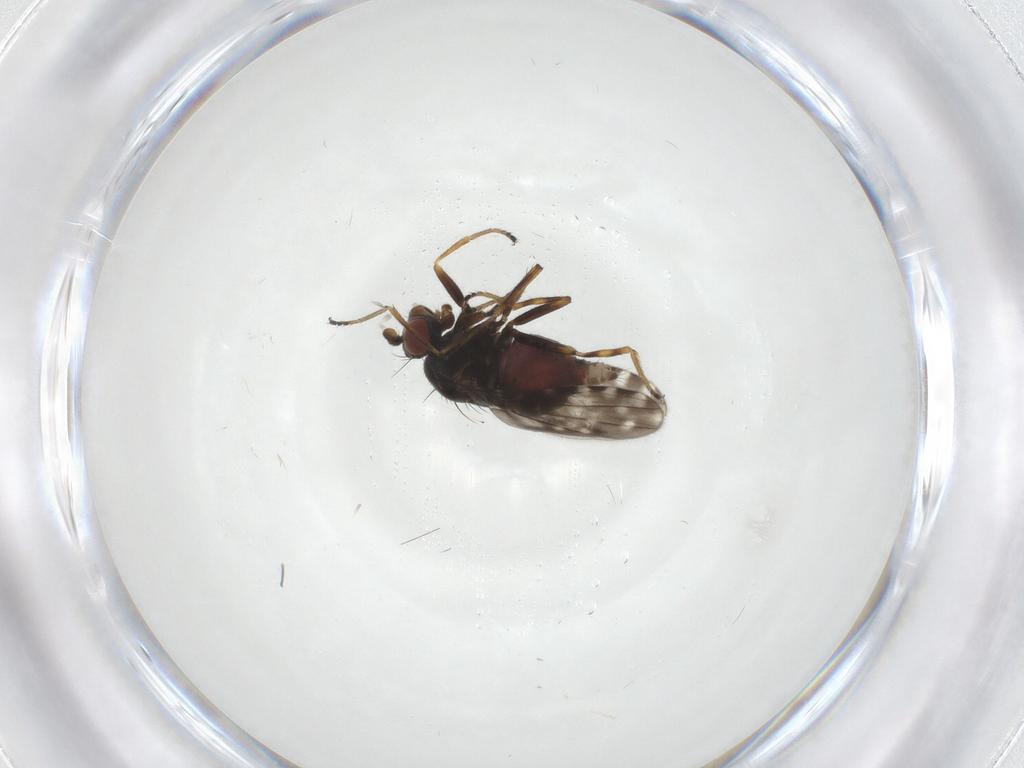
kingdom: Animalia
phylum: Arthropoda
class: Insecta
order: Diptera
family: Ephydridae
